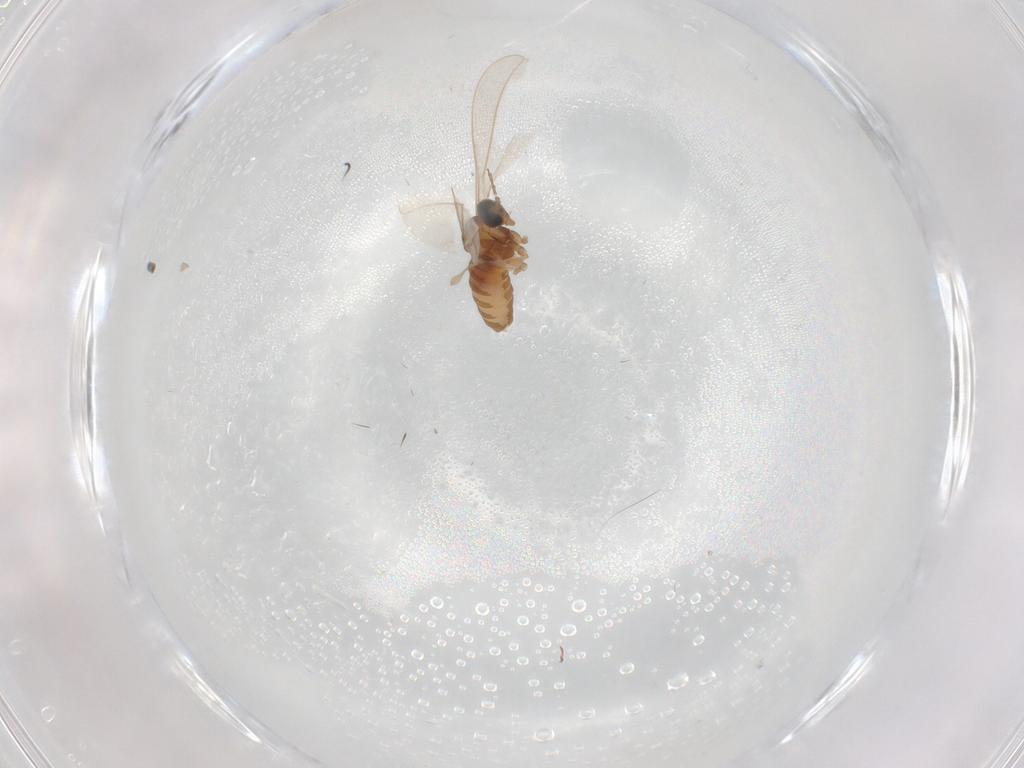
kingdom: Animalia
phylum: Arthropoda
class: Insecta
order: Diptera
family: Cecidomyiidae
